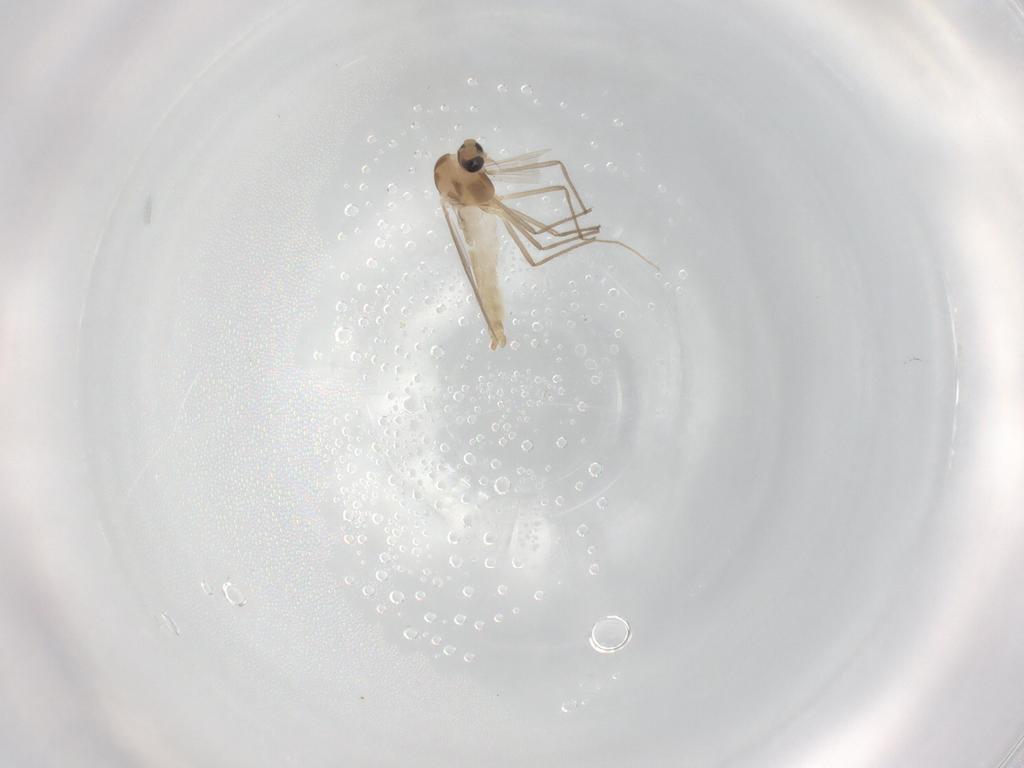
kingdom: Animalia
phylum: Arthropoda
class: Insecta
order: Diptera
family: Chironomidae
